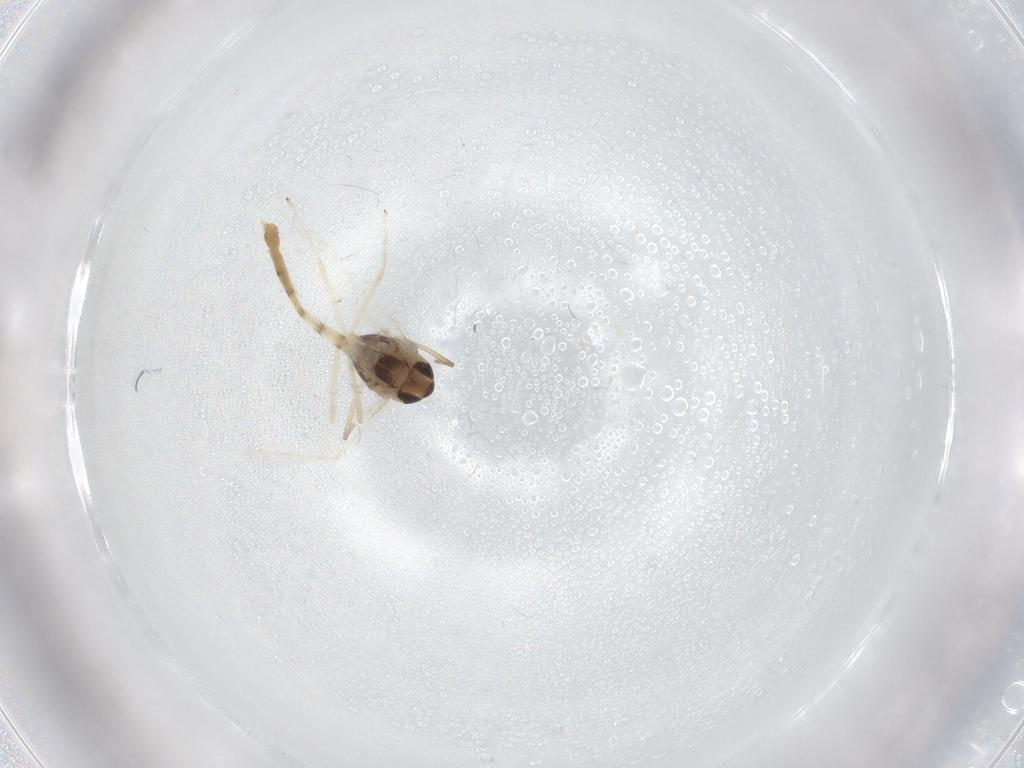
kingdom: Animalia
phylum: Arthropoda
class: Insecta
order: Diptera
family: Chironomidae
